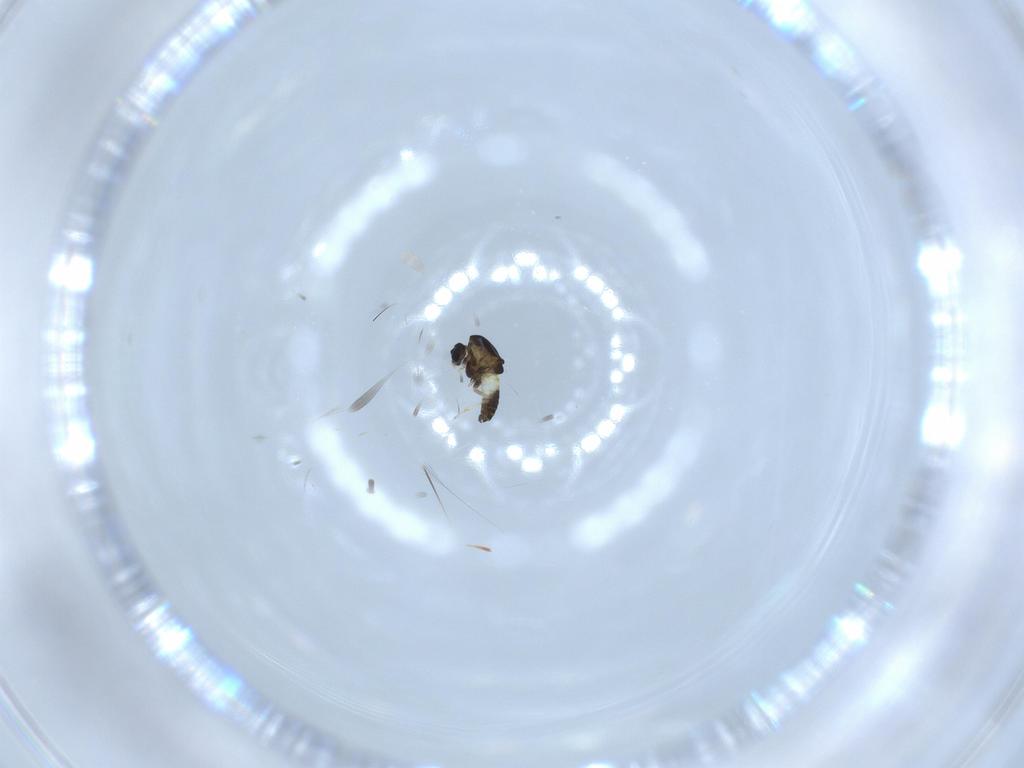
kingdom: Animalia
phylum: Arthropoda
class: Insecta
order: Diptera
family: Chironomidae
